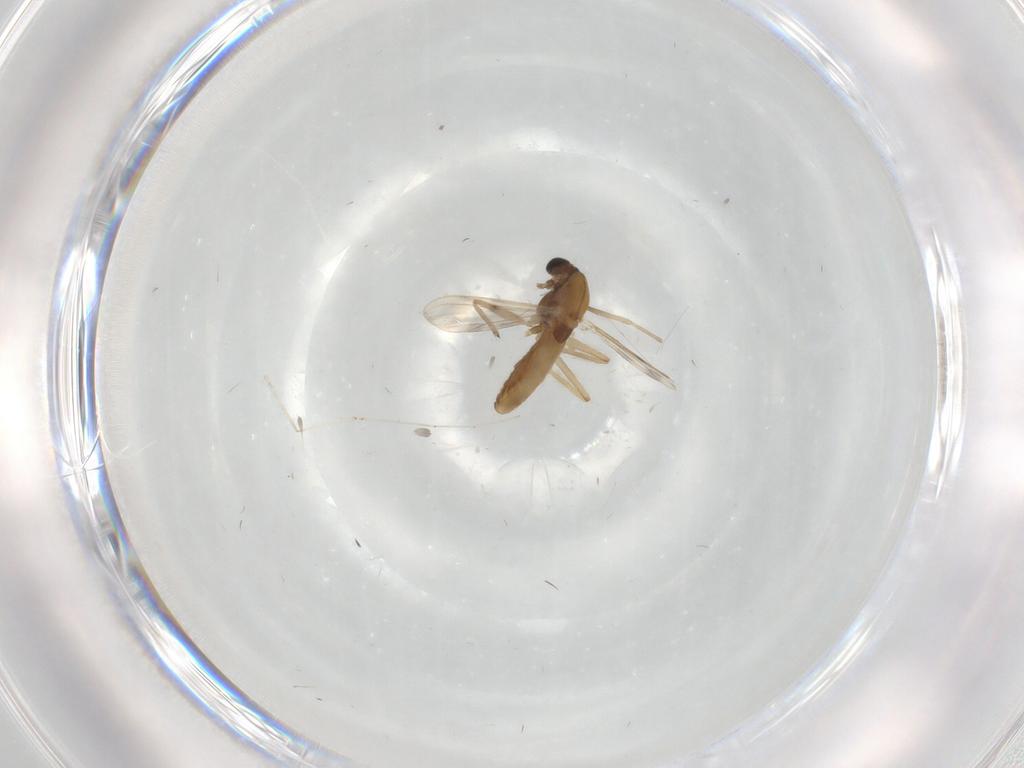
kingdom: Animalia
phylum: Arthropoda
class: Insecta
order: Diptera
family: Chironomidae
